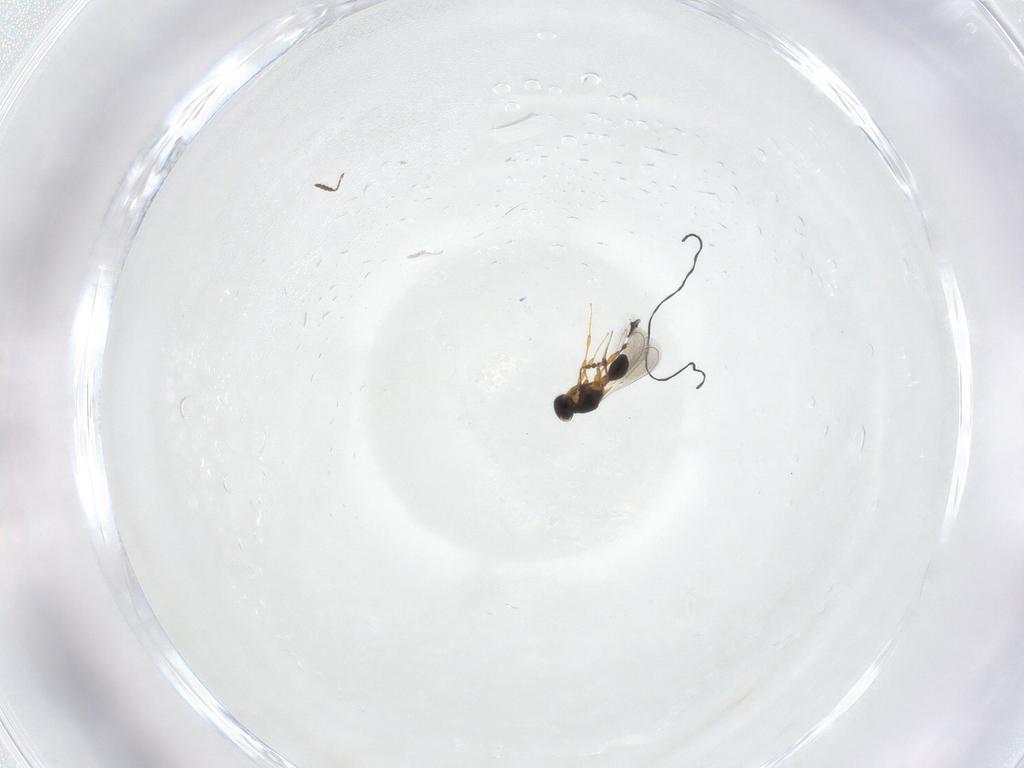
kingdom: Animalia
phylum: Arthropoda
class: Insecta
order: Hymenoptera
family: Platygastridae
